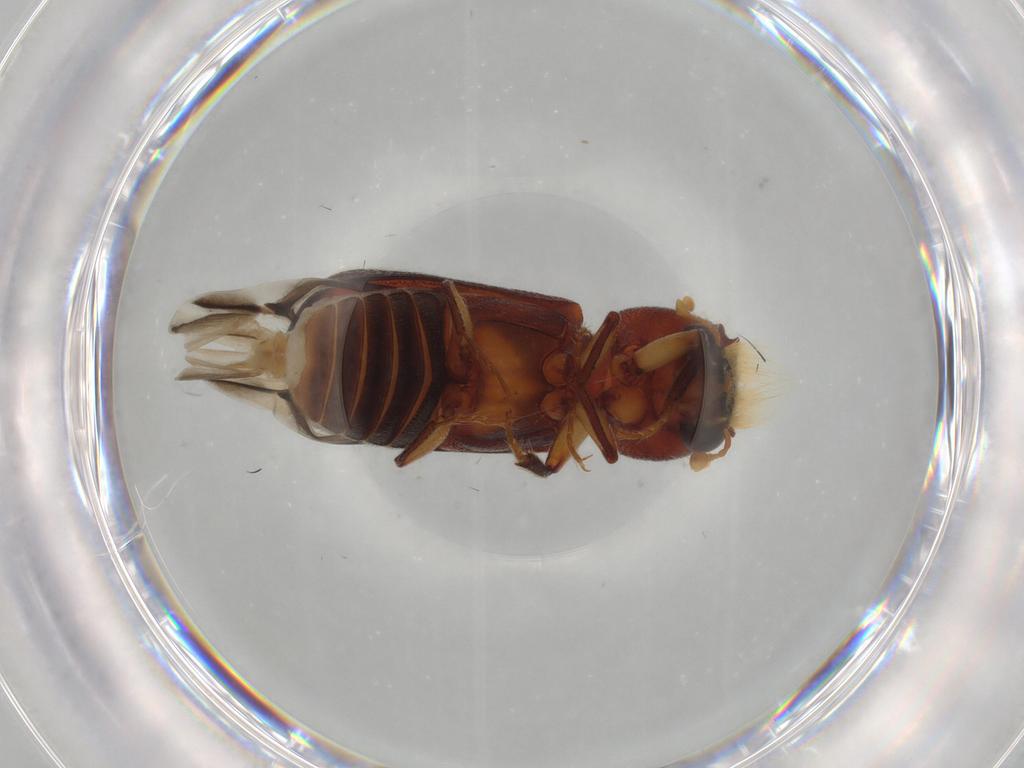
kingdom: Animalia
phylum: Arthropoda
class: Insecta
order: Coleoptera
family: Bostrichidae
